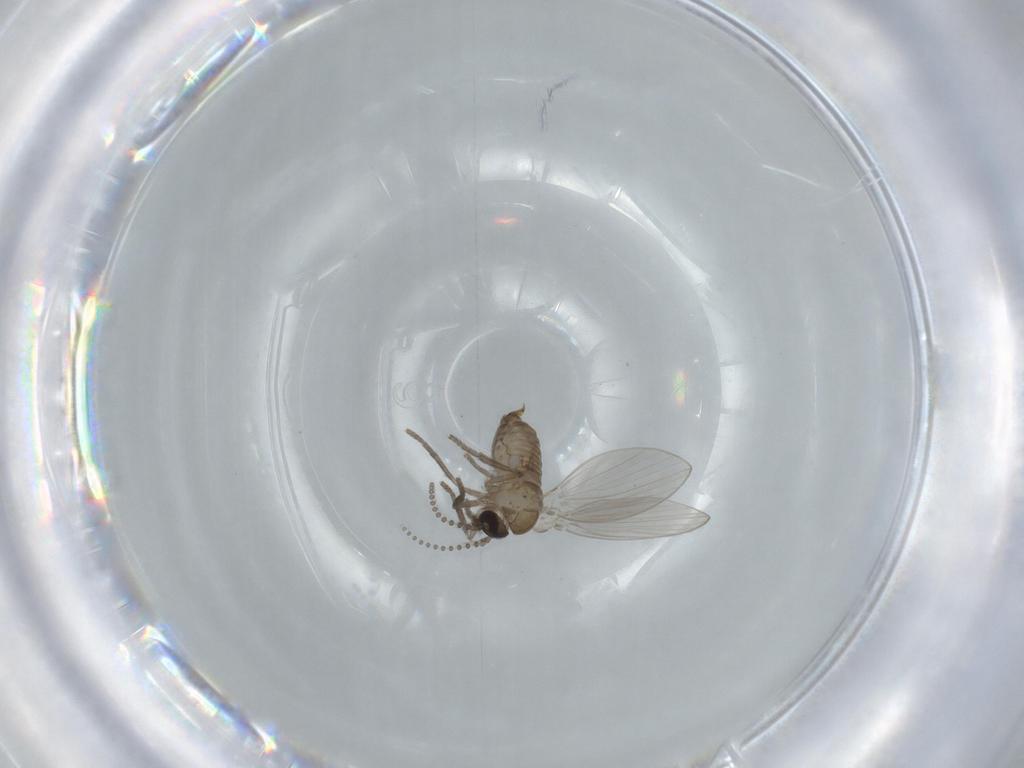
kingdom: Animalia
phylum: Arthropoda
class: Insecta
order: Diptera
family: Psychodidae
